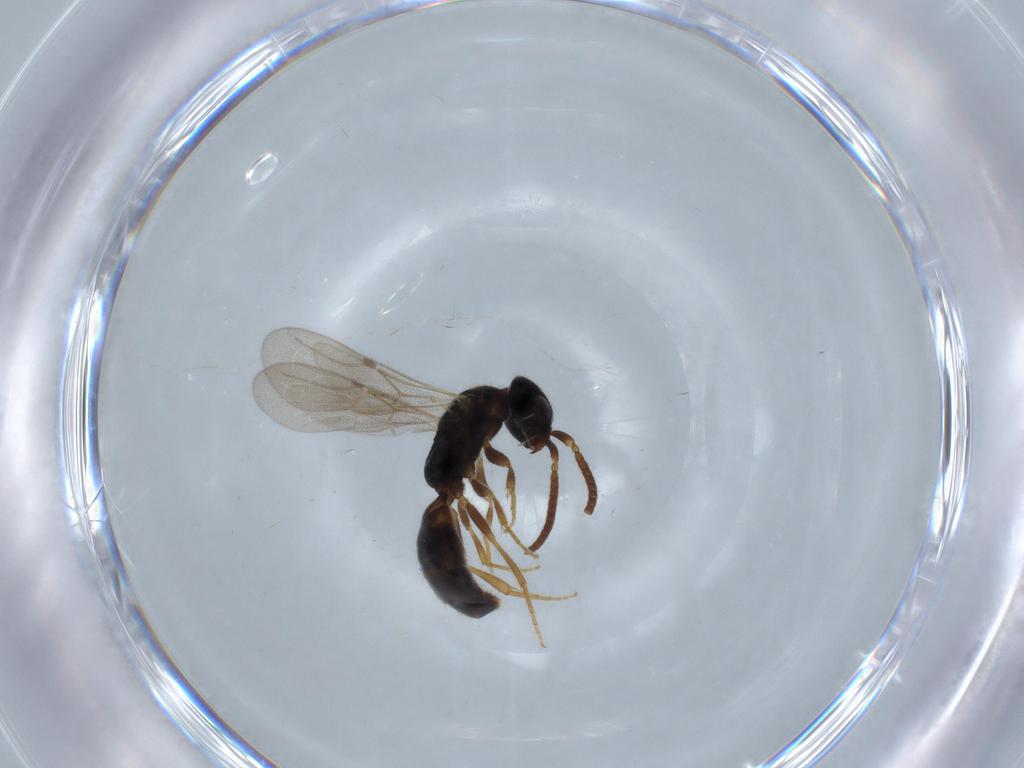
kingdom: Animalia
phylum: Arthropoda
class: Insecta
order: Hymenoptera
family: Bethylidae
